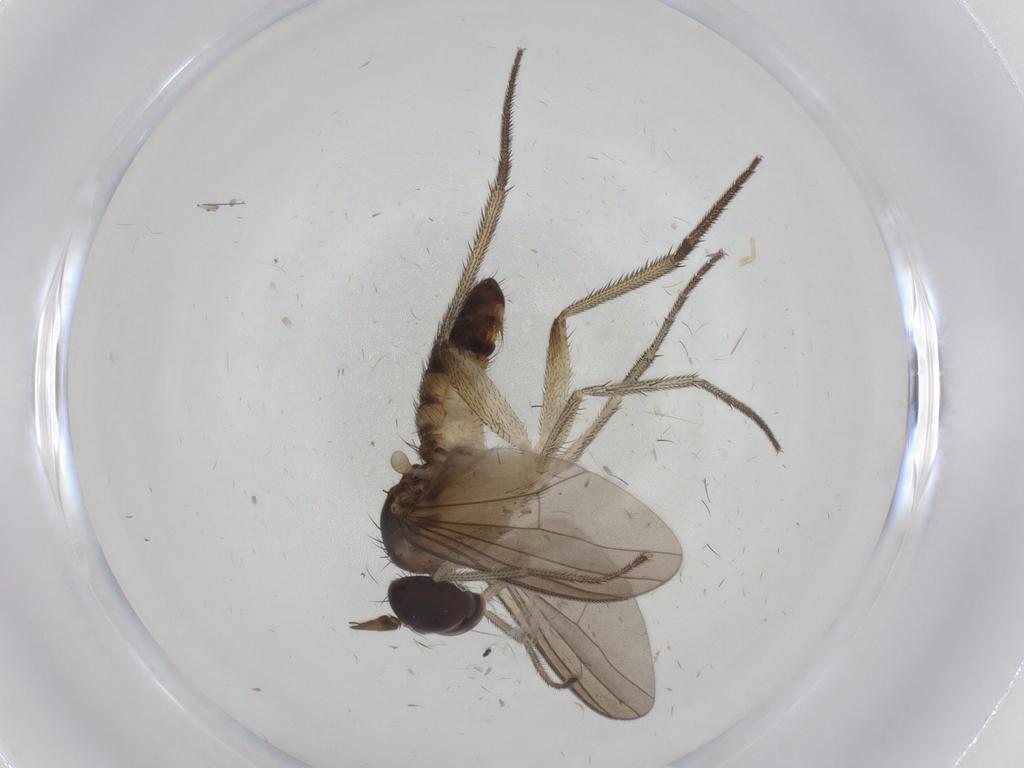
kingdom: Animalia
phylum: Arthropoda
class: Insecta
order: Diptera
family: Dolichopodidae
